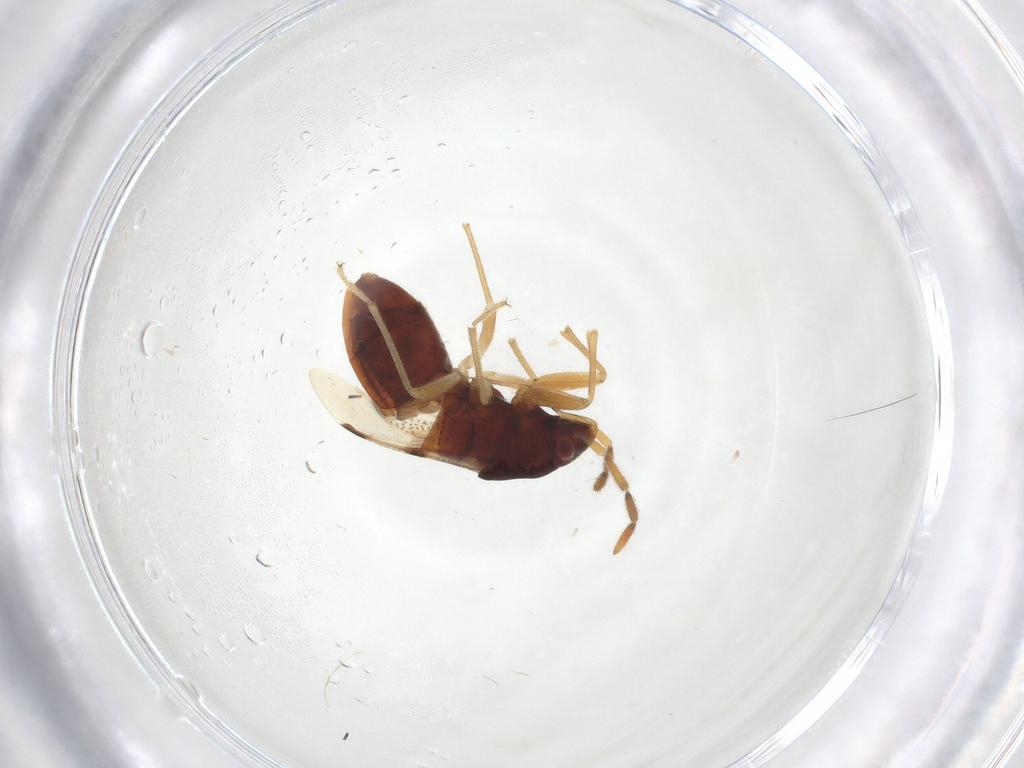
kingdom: Animalia
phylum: Arthropoda
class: Insecta
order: Hemiptera
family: Rhyparochromidae
